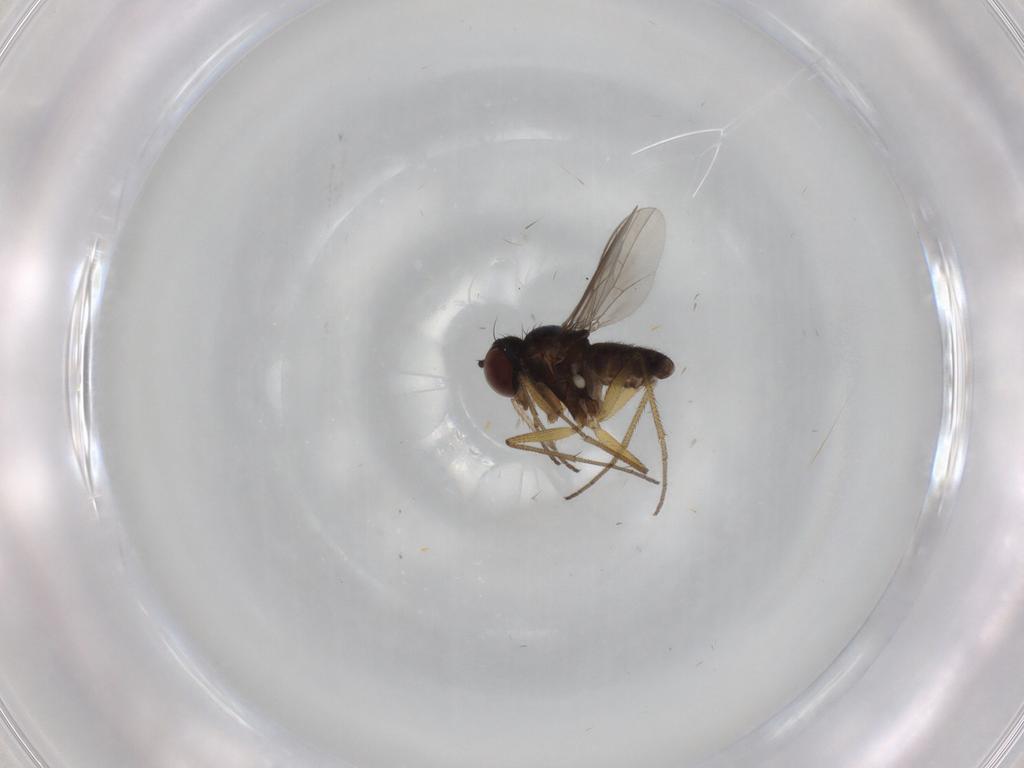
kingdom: Animalia
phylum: Arthropoda
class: Insecta
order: Diptera
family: Dolichopodidae
